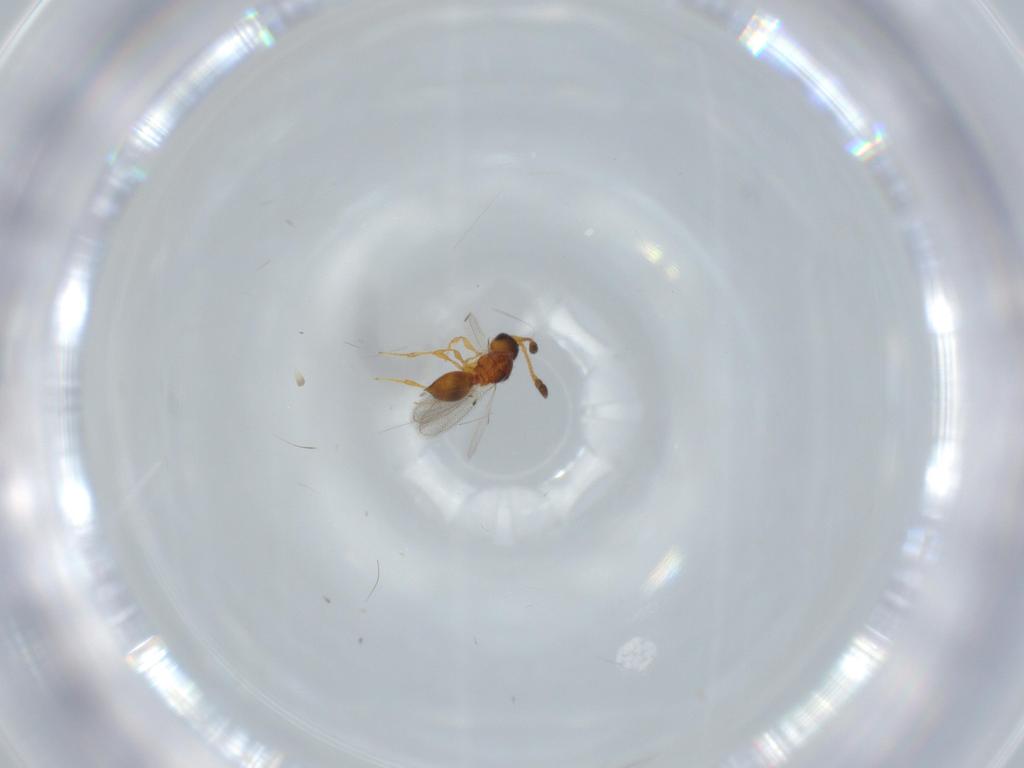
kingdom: Animalia
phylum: Arthropoda
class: Insecta
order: Hymenoptera
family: Diapriidae
